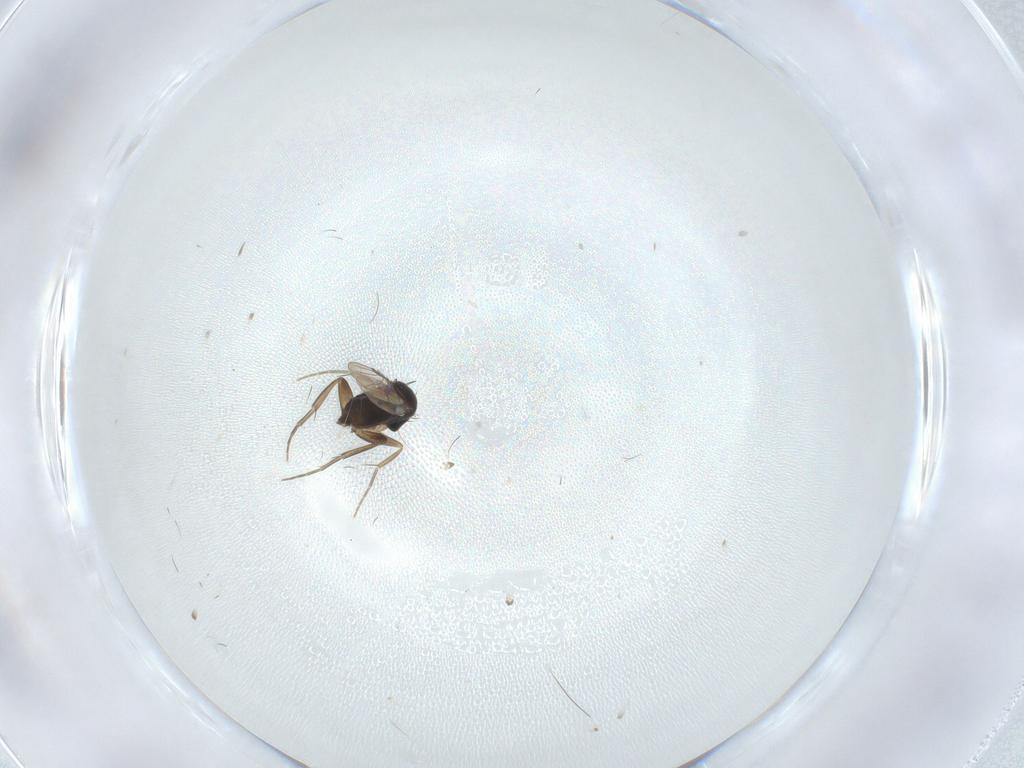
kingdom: Animalia
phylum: Arthropoda
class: Insecta
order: Diptera
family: Phoridae
